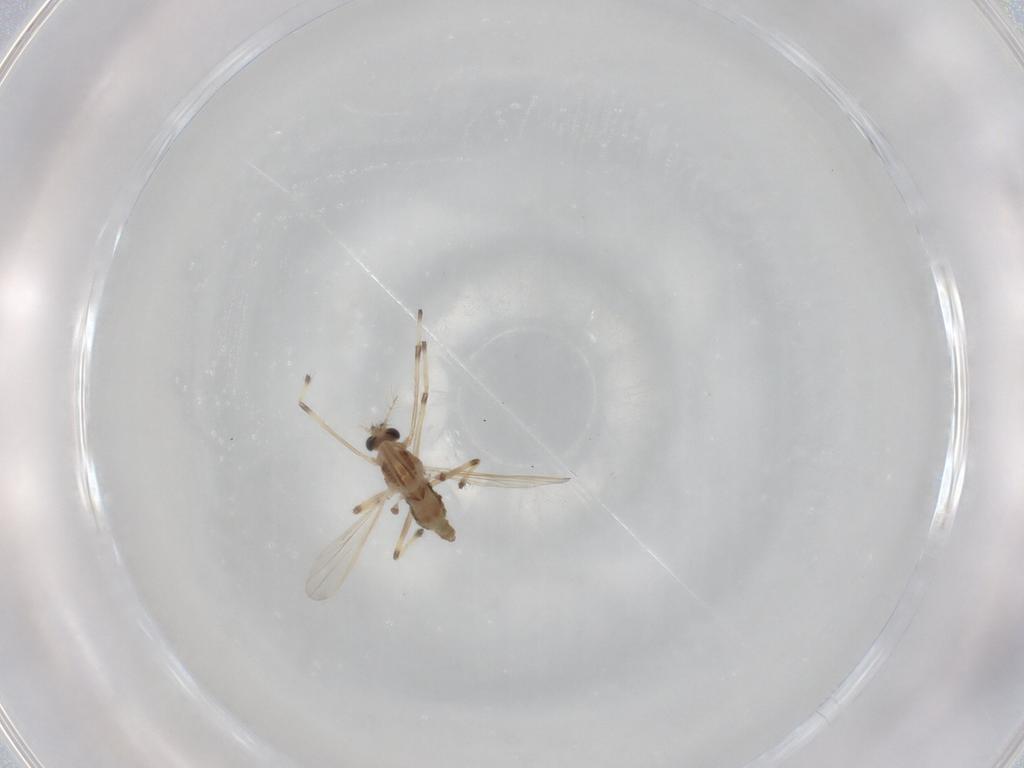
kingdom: Animalia
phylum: Arthropoda
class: Insecta
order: Diptera
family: Chironomidae
